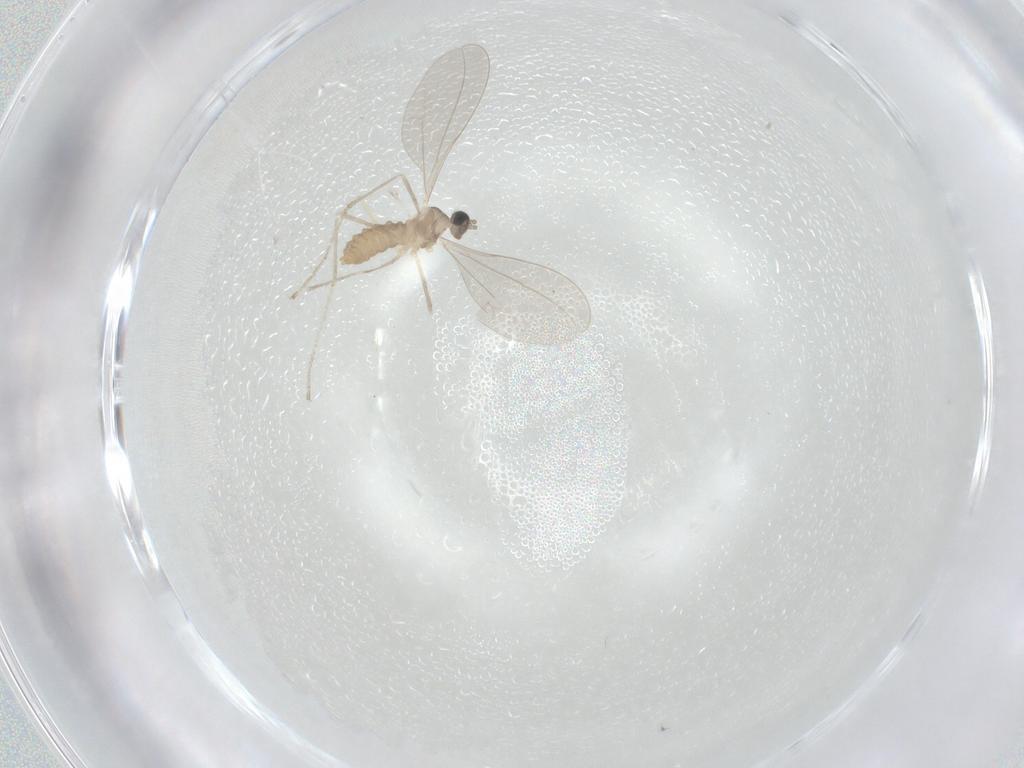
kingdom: Animalia
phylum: Arthropoda
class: Insecta
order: Diptera
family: Cecidomyiidae
